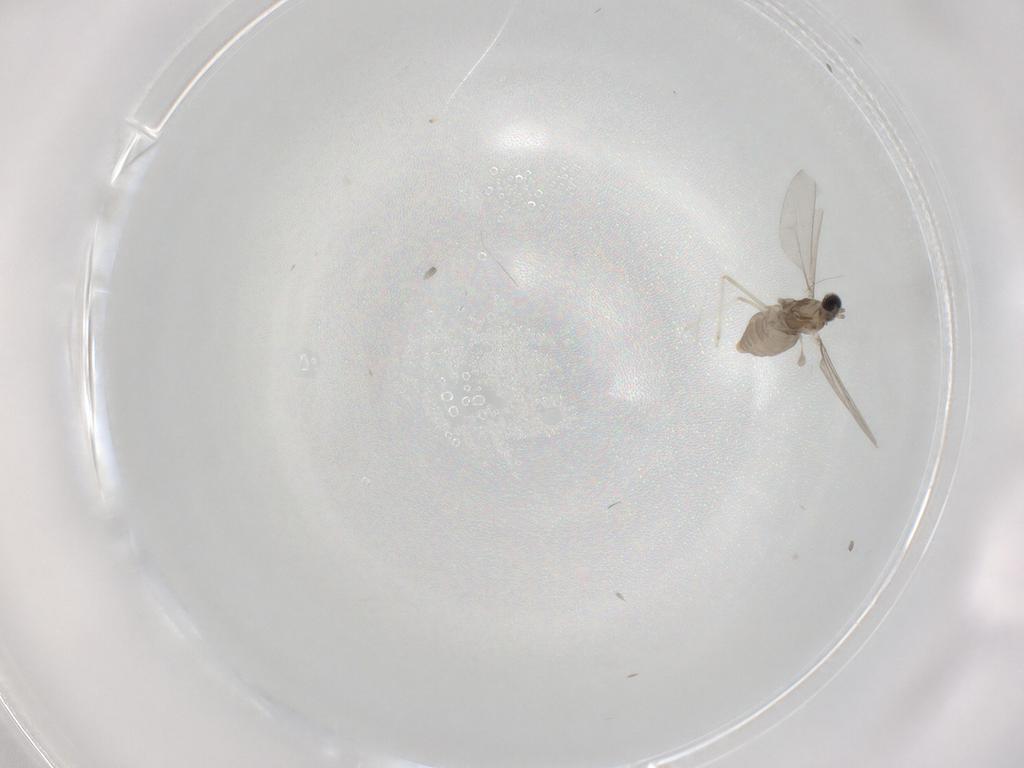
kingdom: Animalia
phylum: Arthropoda
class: Insecta
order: Diptera
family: Cecidomyiidae
